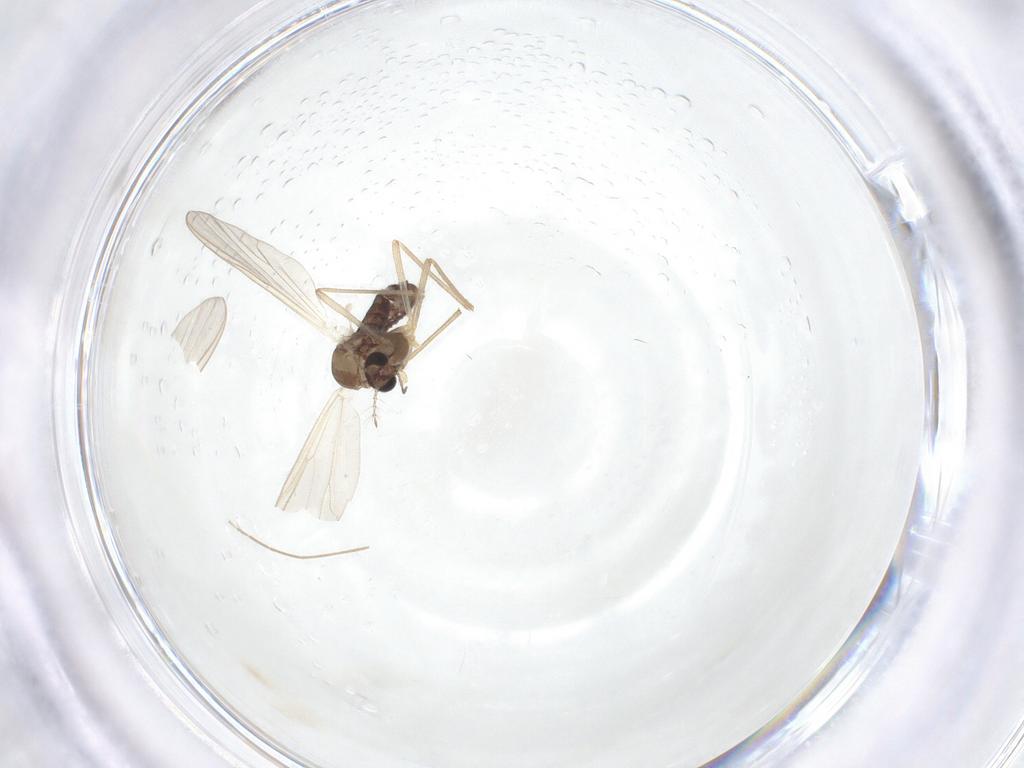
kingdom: Animalia
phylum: Arthropoda
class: Insecta
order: Diptera
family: Chironomidae
